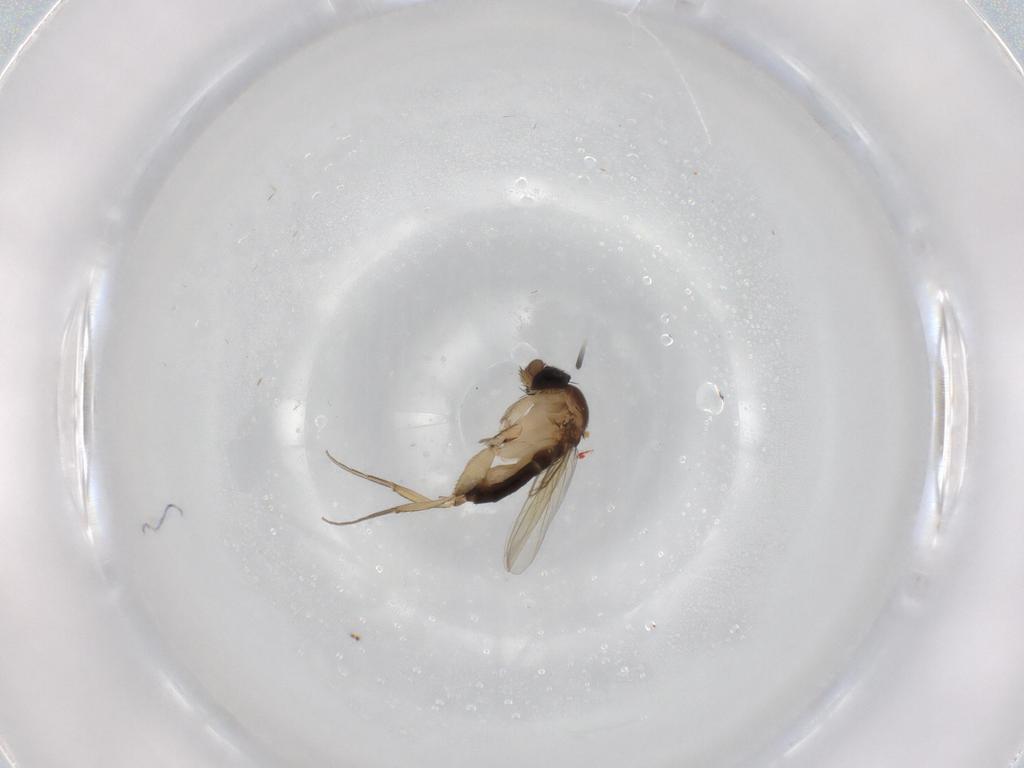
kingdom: Animalia
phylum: Arthropoda
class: Insecta
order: Diptera
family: Phoridae
